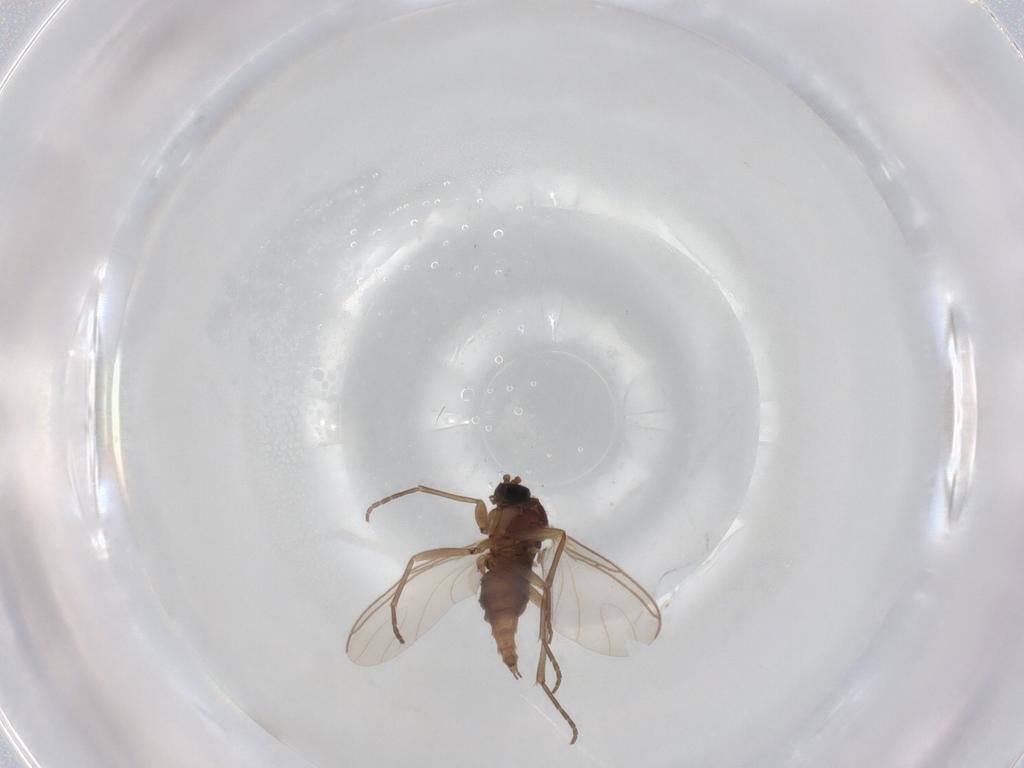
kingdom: Animalia
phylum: Arthropoda
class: Insecta
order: Diptera
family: Sciaridae
